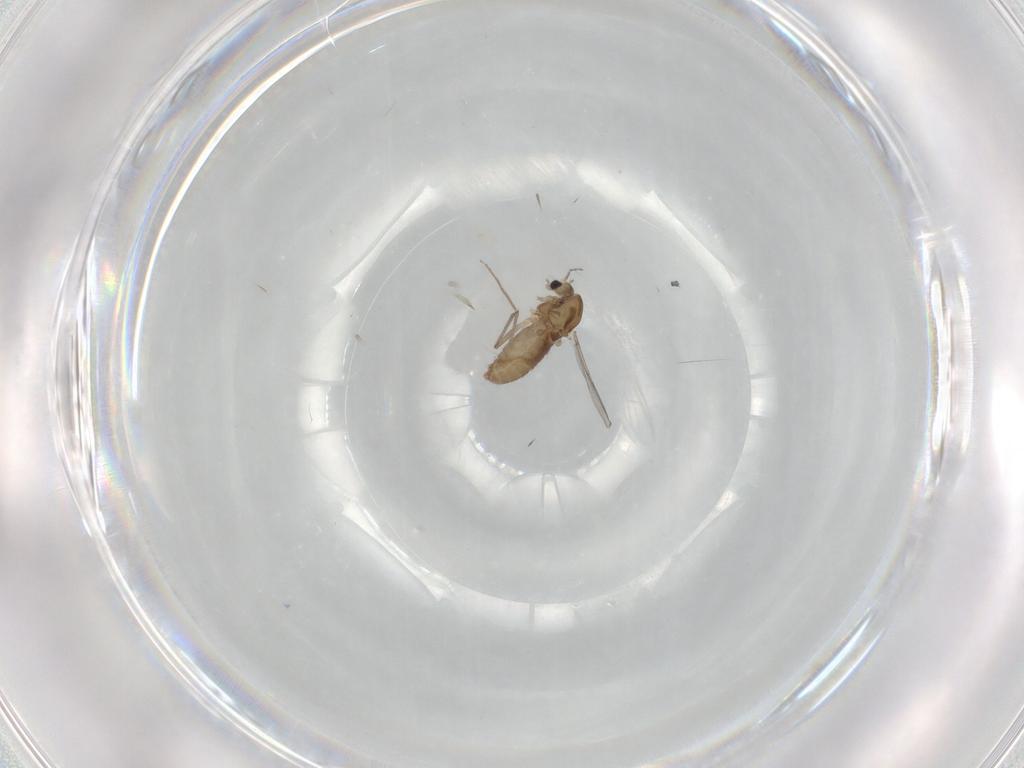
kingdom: Animalia
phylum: Arthropoda
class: Insecta
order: Diptera
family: Chironomidae
